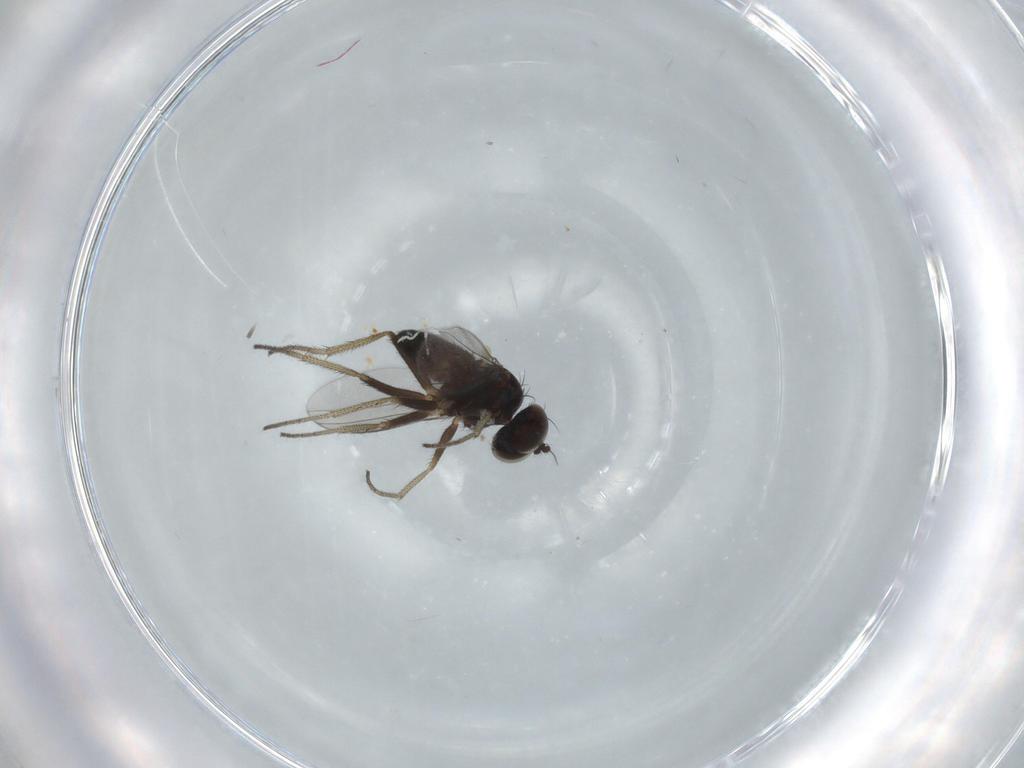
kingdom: Animalia
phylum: Arthropoda
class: Insecta
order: Diptera
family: Dolichopodidae
